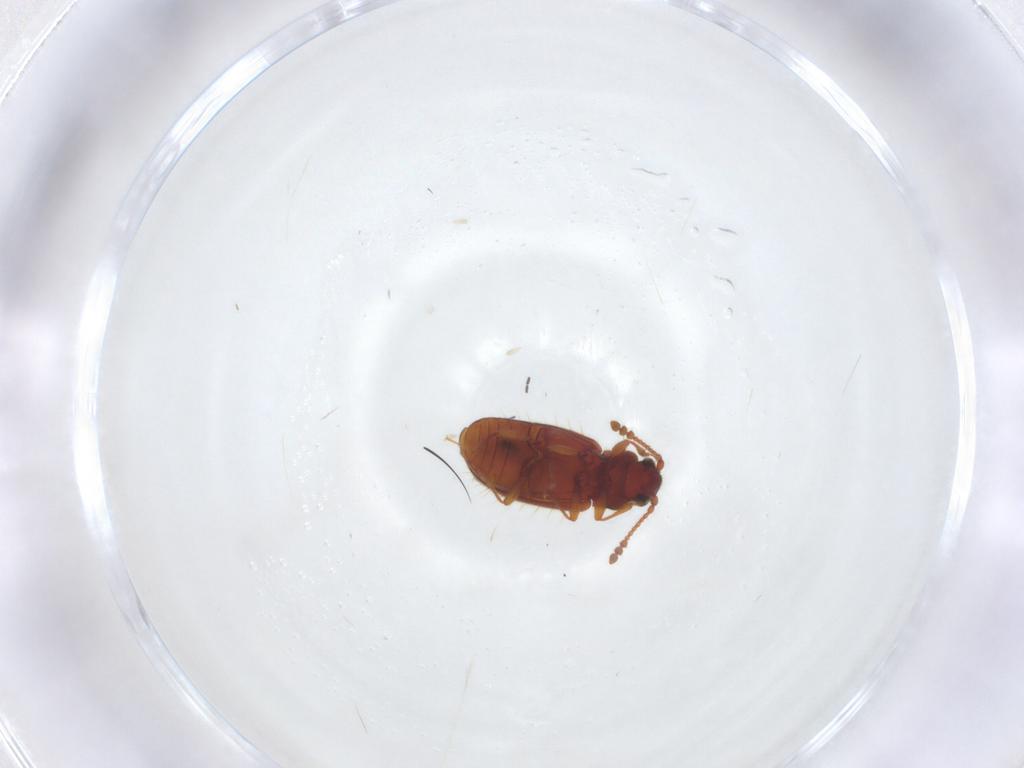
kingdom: Animalia
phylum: Arthropoda
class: Insecta
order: Coleoptera
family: Cryptophagidae
